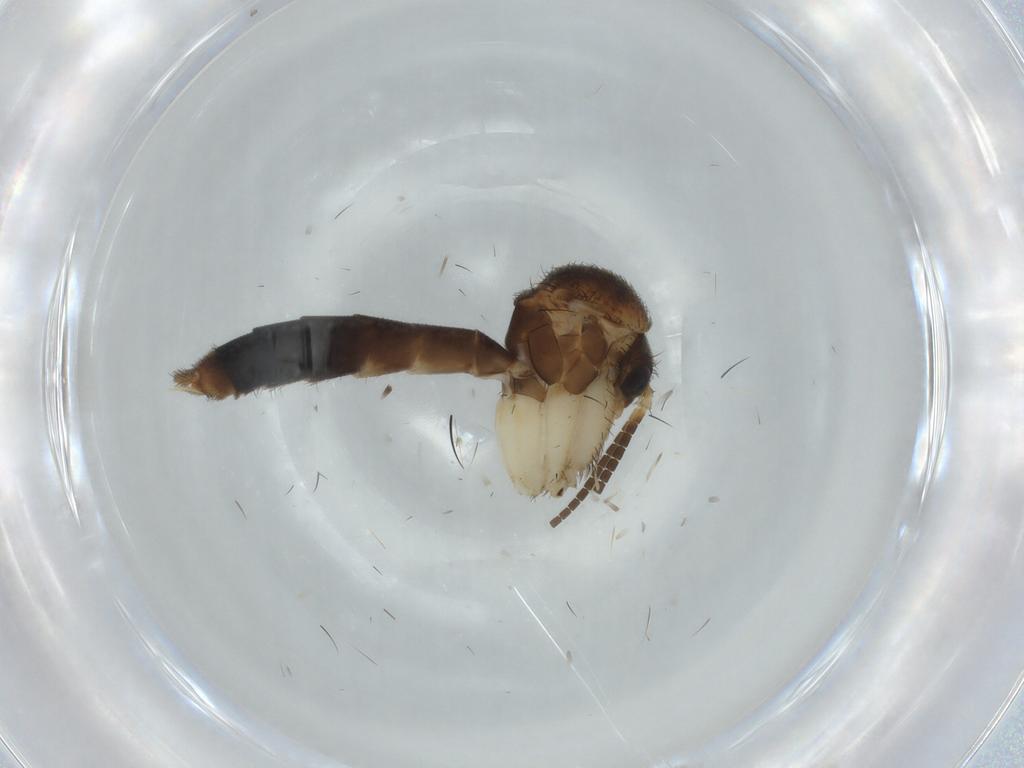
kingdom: Animalia
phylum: Arthropoda
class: Insecta
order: Diptera
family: Hybotidae
